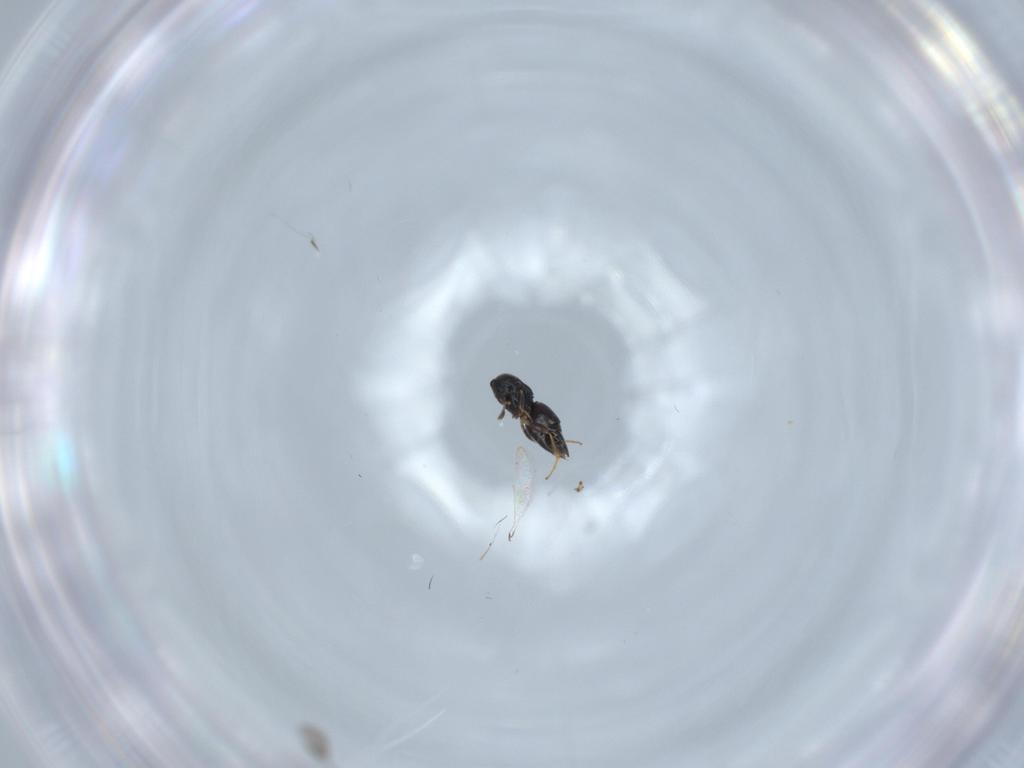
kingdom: Animalia
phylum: Arthropoda
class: Insecta
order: Hymenoptera
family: Ceraphronidae
